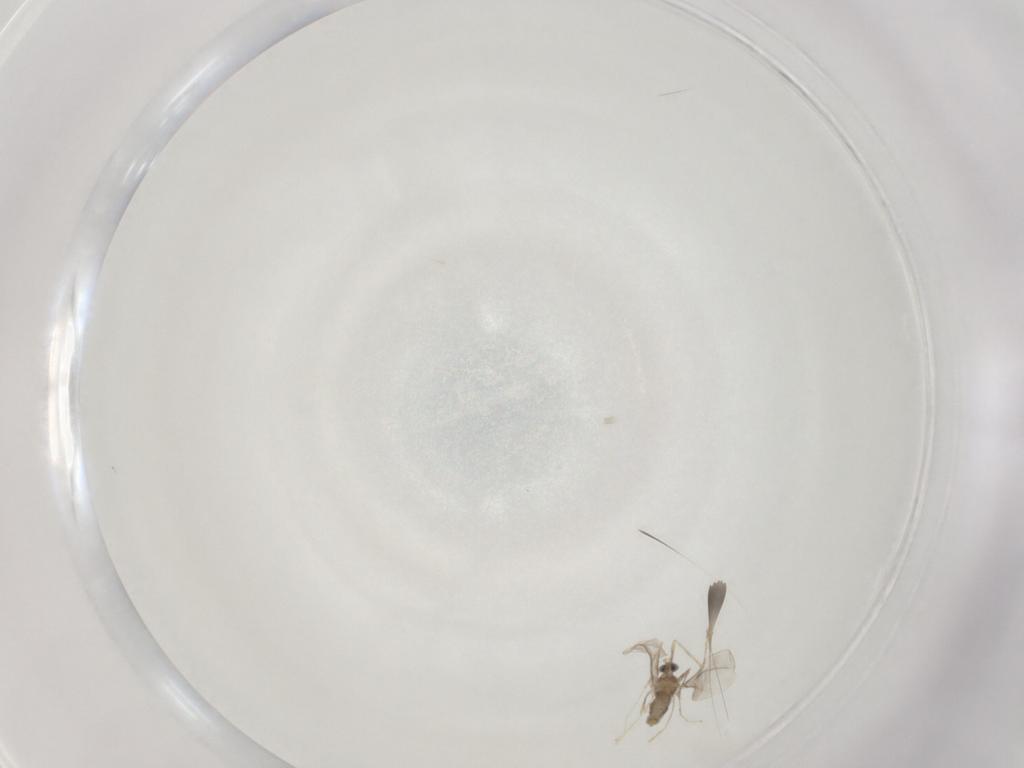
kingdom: Animalia
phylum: Arthropoda
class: Insecta
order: Diptera
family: Cecidomyiidae
